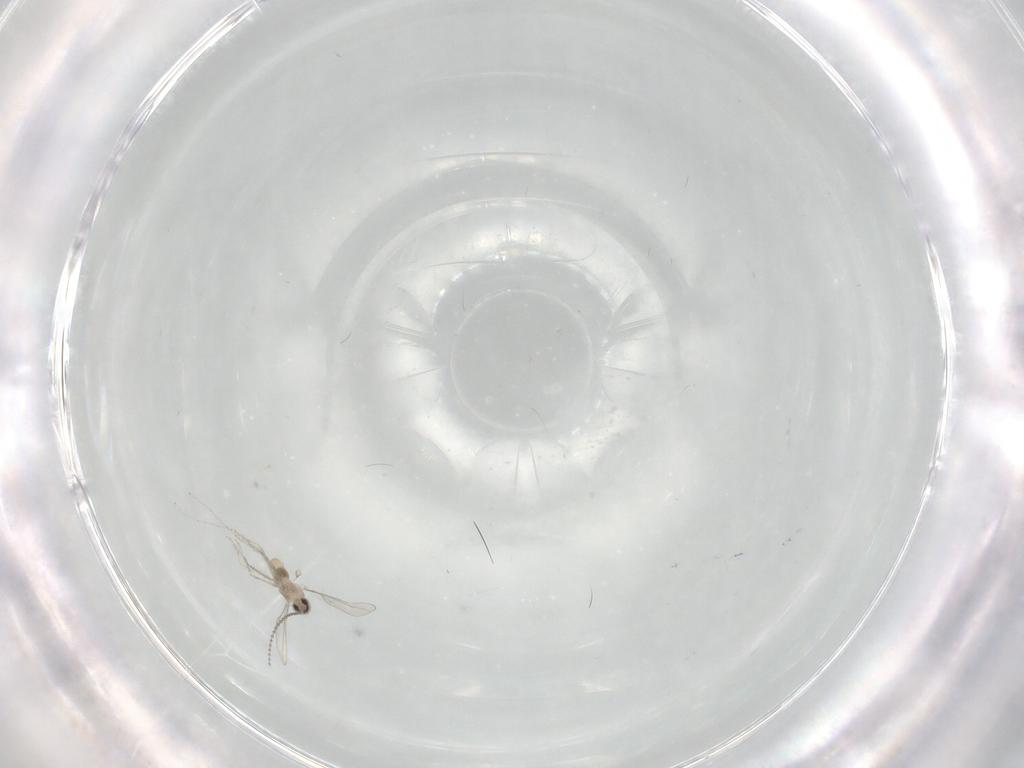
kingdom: Animalia
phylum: Arthropoda
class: Insecta
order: Diptera
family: Cecidomyiidae
